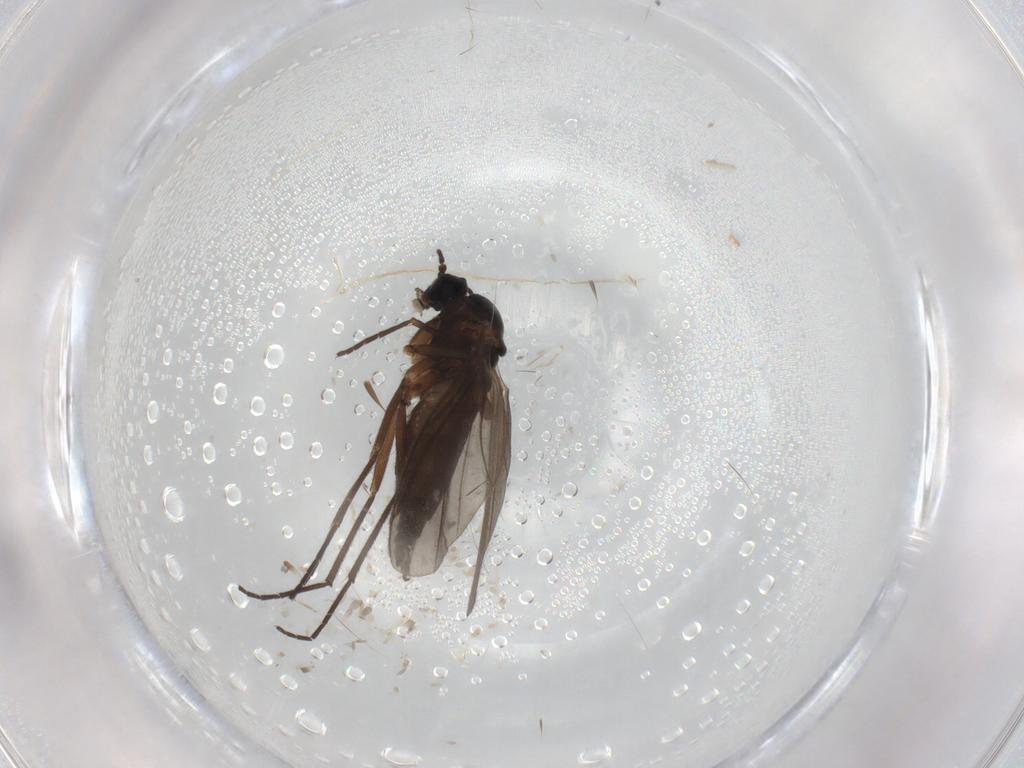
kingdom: Animalia
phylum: Arthropoda
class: Insecta
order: Diptera
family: Sciaridae
